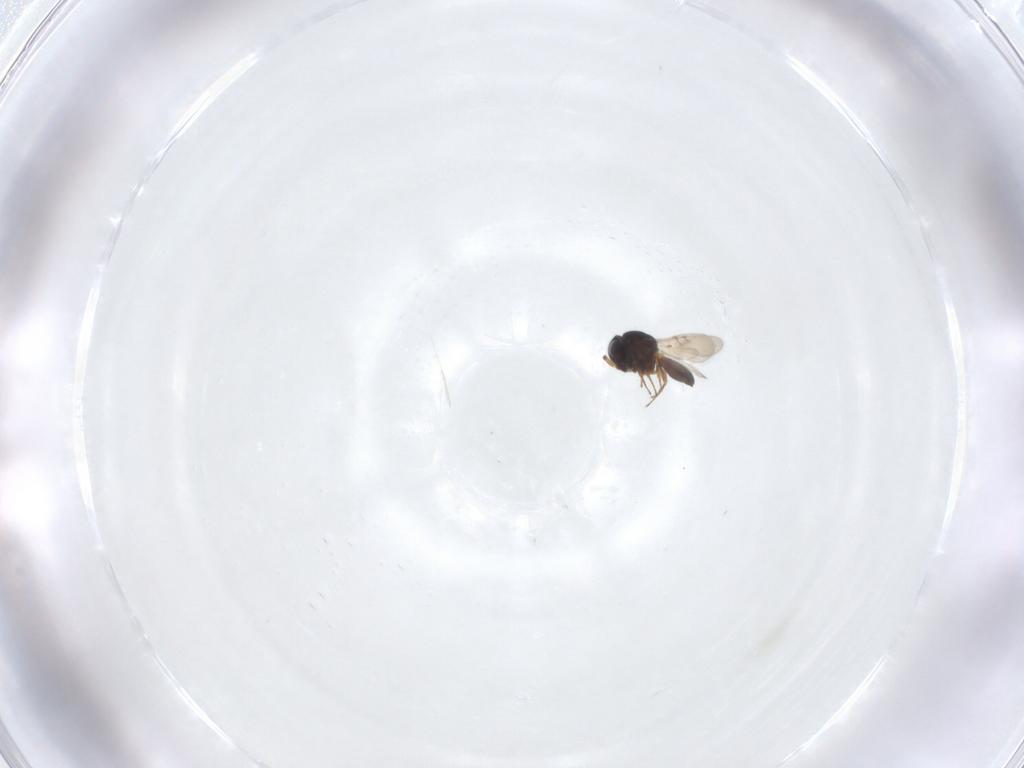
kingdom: Animalia
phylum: Arthropoda
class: Insecta
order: Hymenoptera
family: Scelionidae
